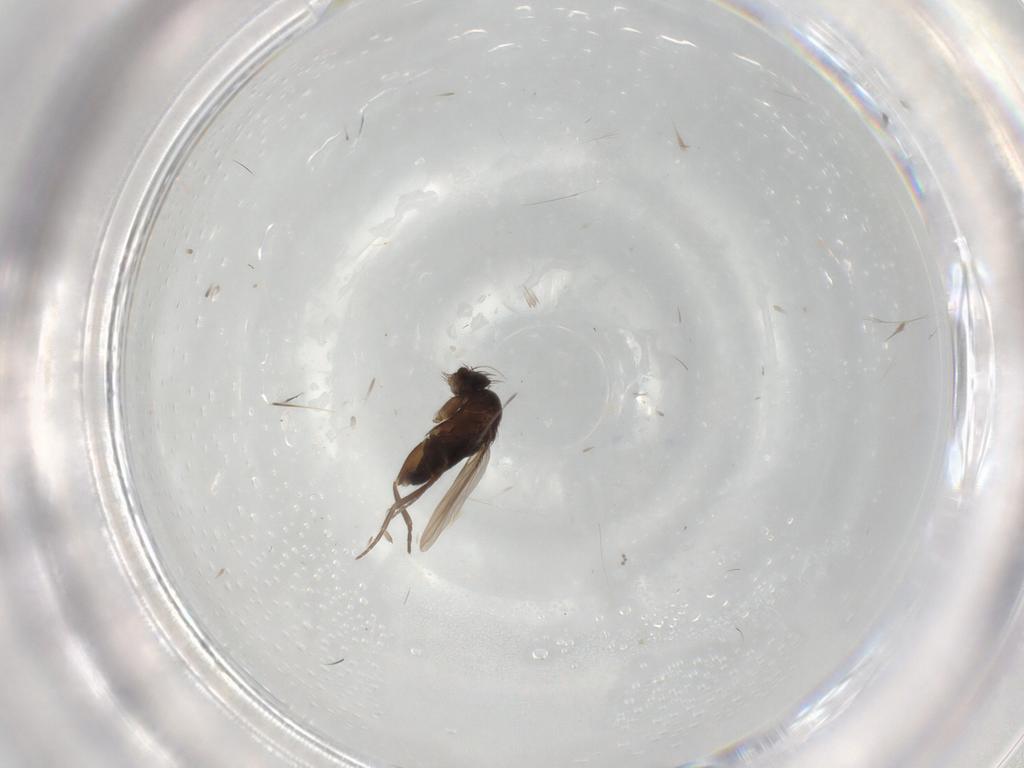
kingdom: Animalia
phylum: Arthropoda
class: Insecta
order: Diptera
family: Phoridae
